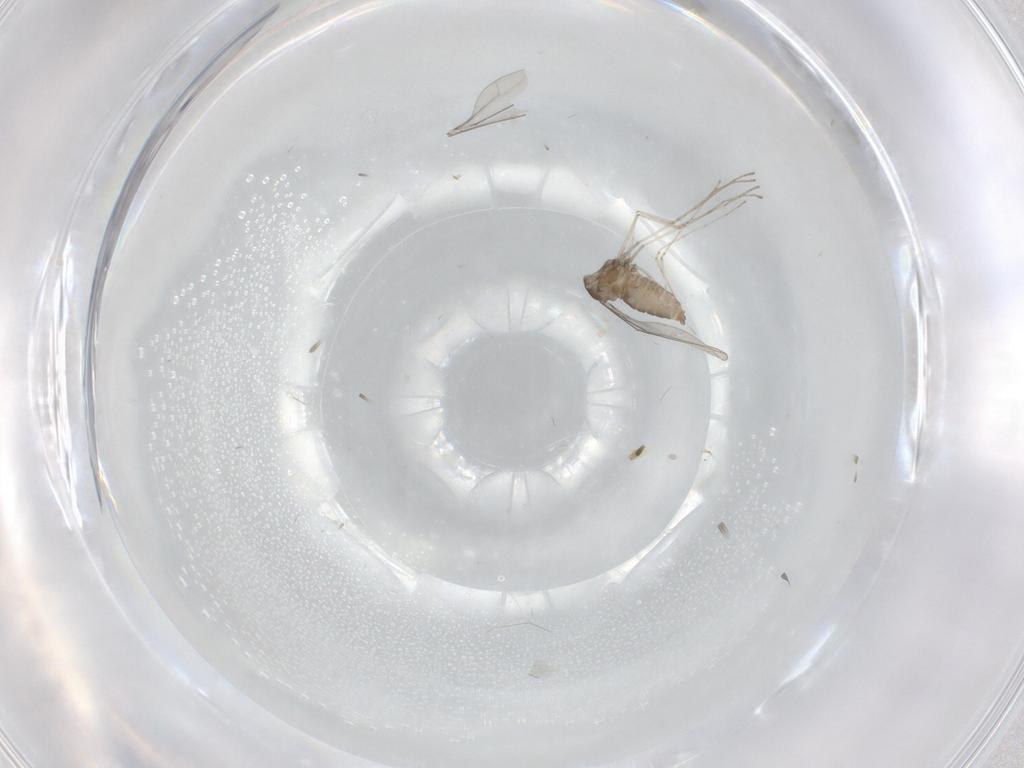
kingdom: Animalia
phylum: Arthropoda
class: Insecta
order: Diptera
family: Cecidomyiidae
